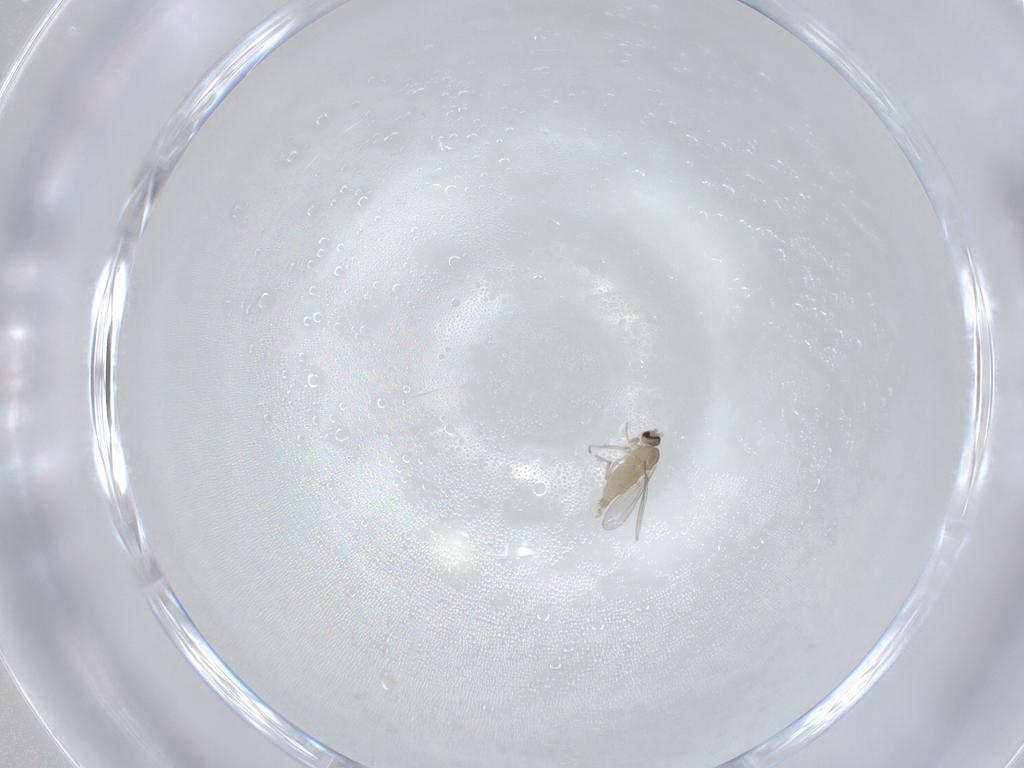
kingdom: Animalia
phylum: Arthropoda
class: Insecta
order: Diptera
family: Dolichopodidae
